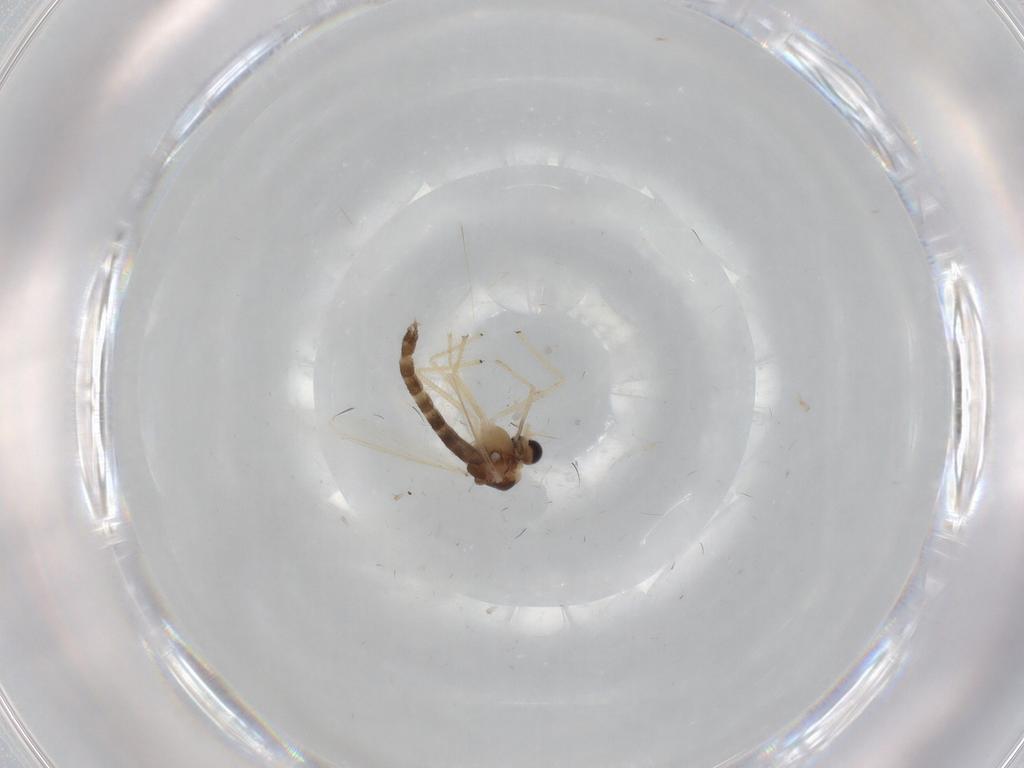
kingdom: Animalia
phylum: Arthropoda
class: Insecta
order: Diptera
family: Chironomidae
